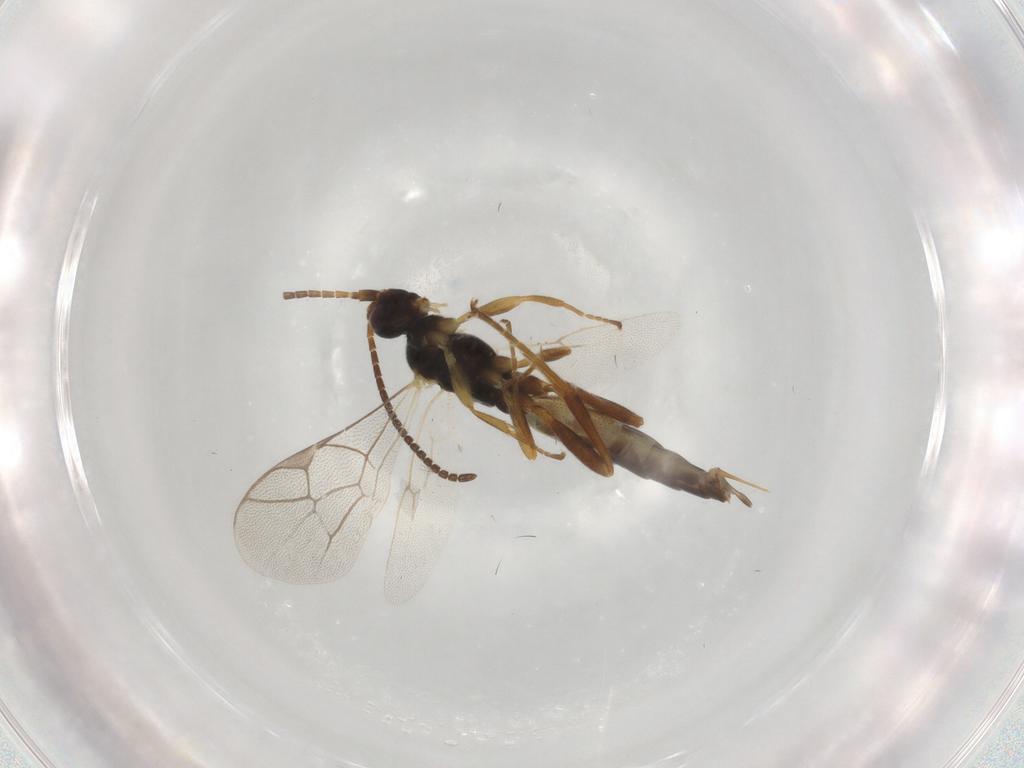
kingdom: Animalia
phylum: Arthropoda
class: Insecta
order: Hymenoptera
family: Ichneumonidae
